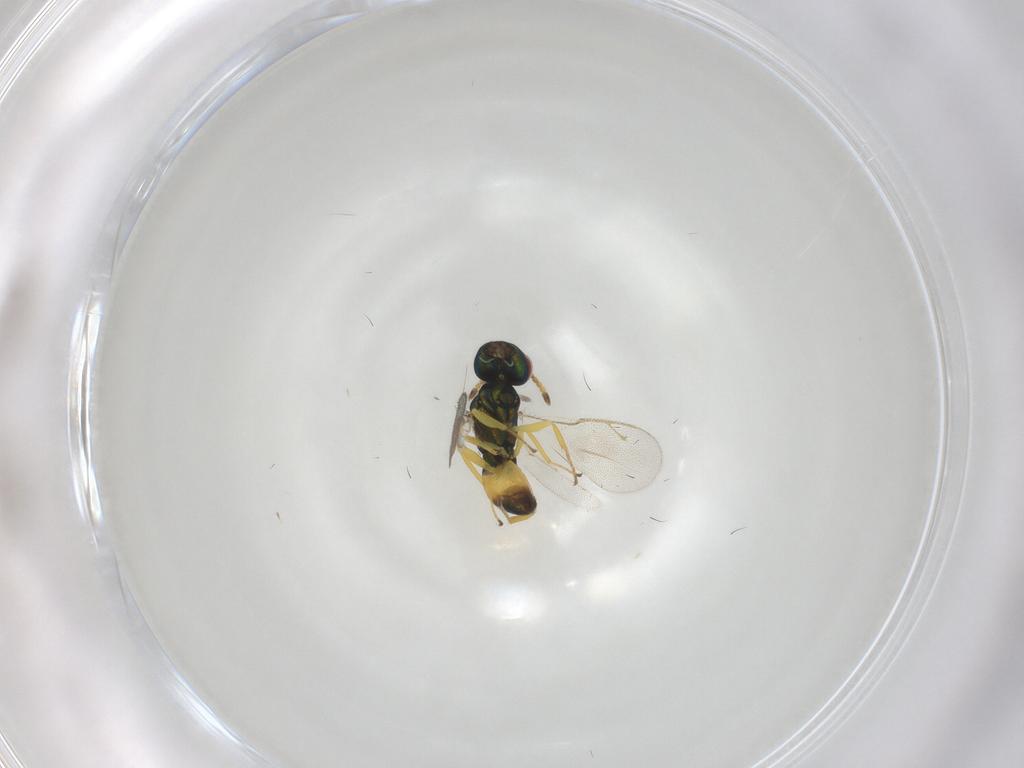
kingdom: Animalia
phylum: Arthropoda
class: Insecta
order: Hymenoptera
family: Pteromalidae
